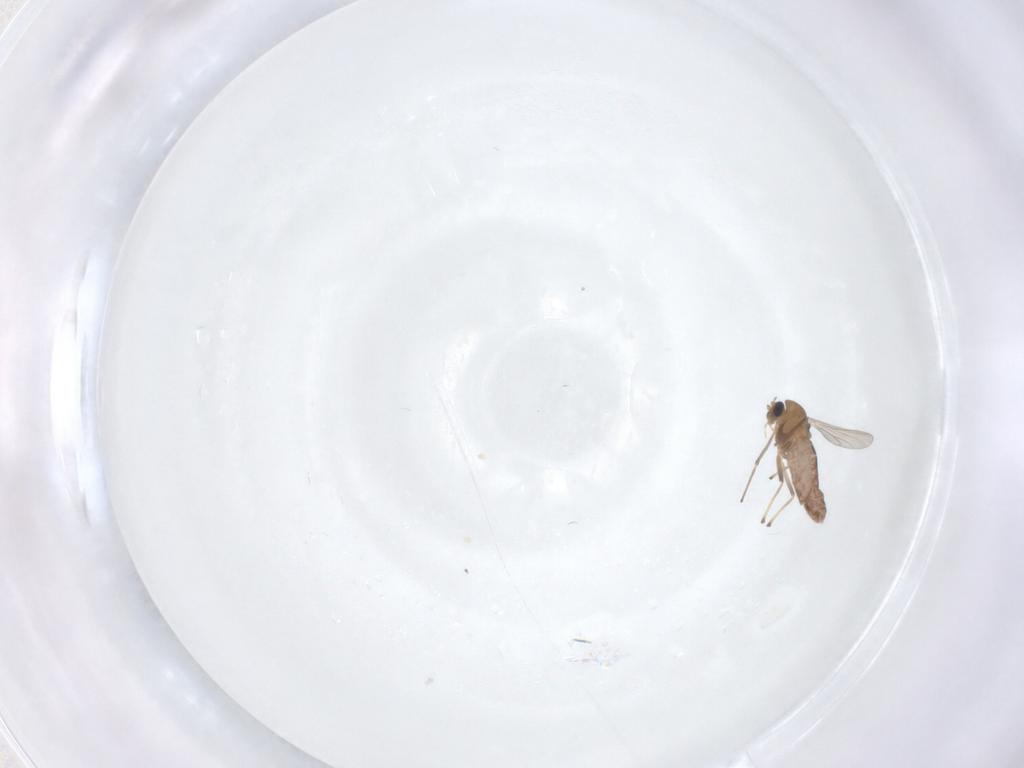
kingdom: Animalia
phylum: Arthropoda
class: Insecta
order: Diptera
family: Chironomidae
